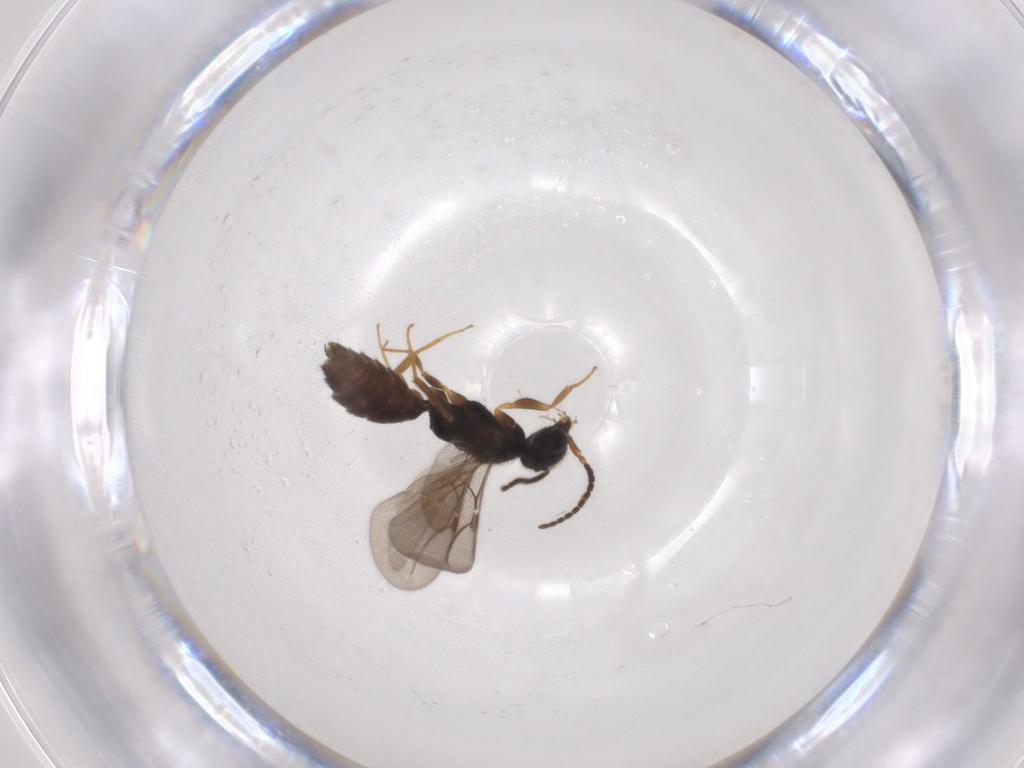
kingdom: Animalia
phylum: Arthropoda
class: Insecta
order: Hymenoptera
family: Bethylidae
